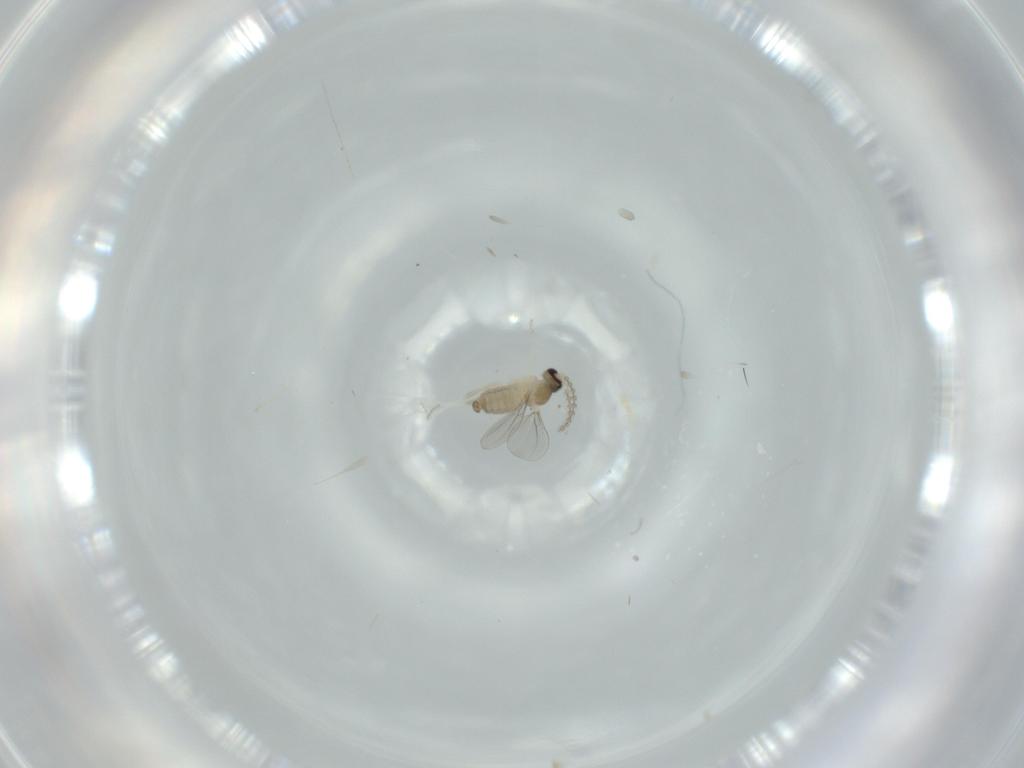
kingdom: Animalia
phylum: Arthropoda
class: Insecta
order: Diptera
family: Cecidomyiidae
